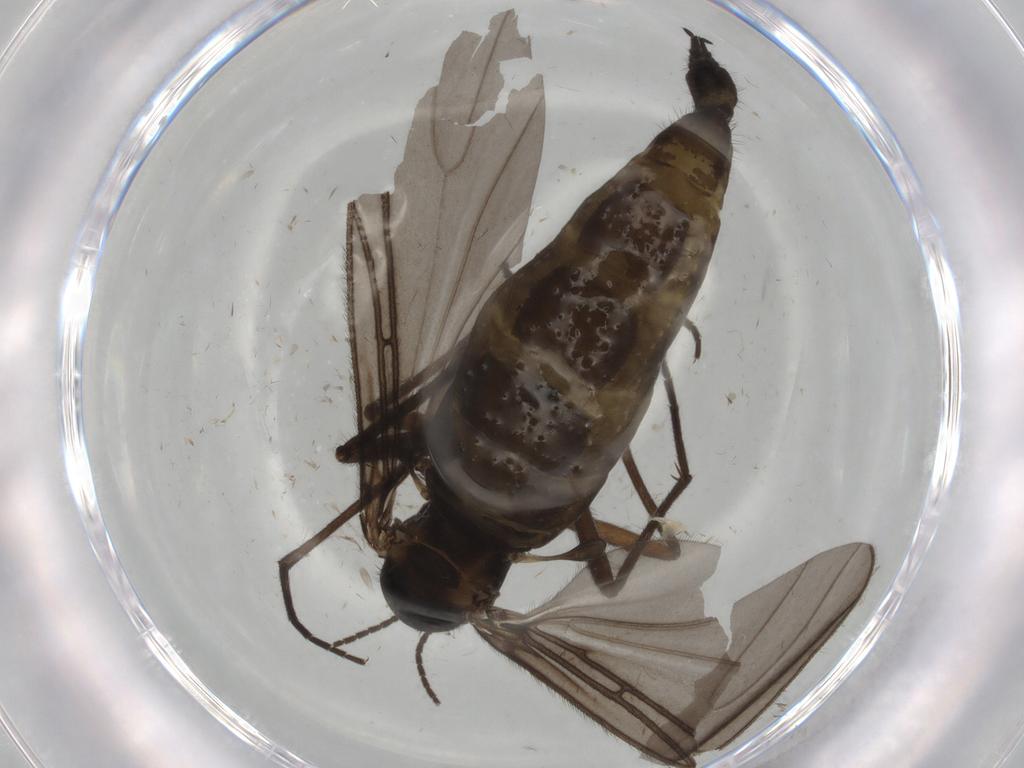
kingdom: Animalia
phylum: Arthropoda
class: Insecta
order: Diptera
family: Sciaridae
